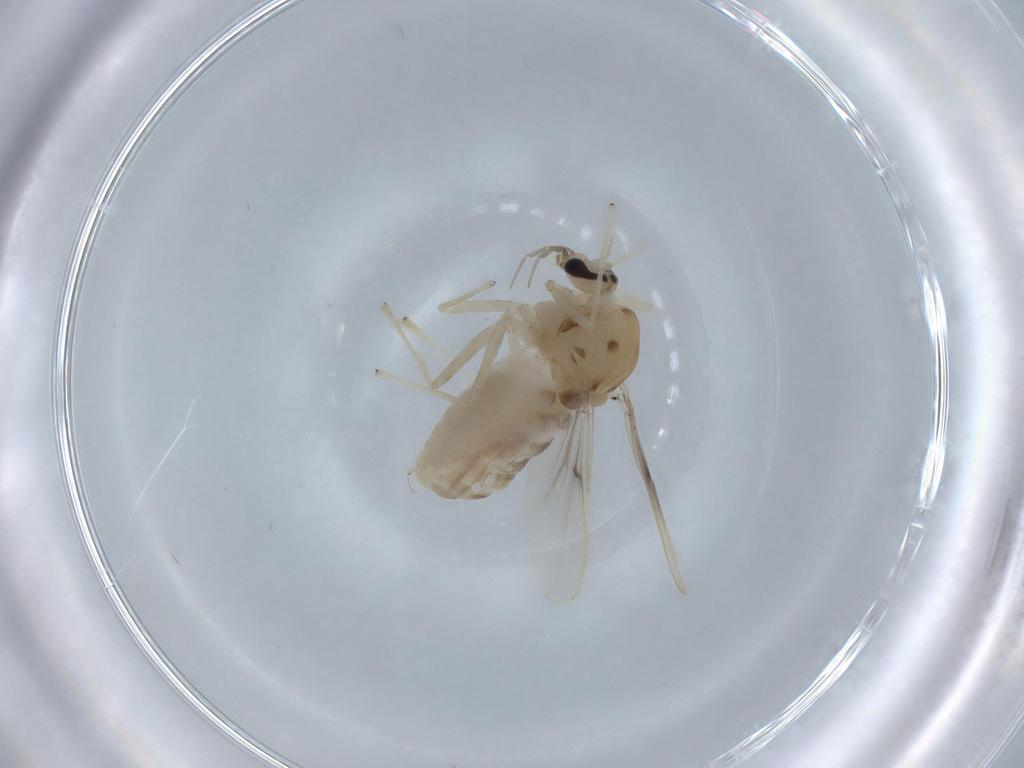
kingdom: Animalia
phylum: Arthropoda
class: Insecta
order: Diptera
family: Chironomidae
